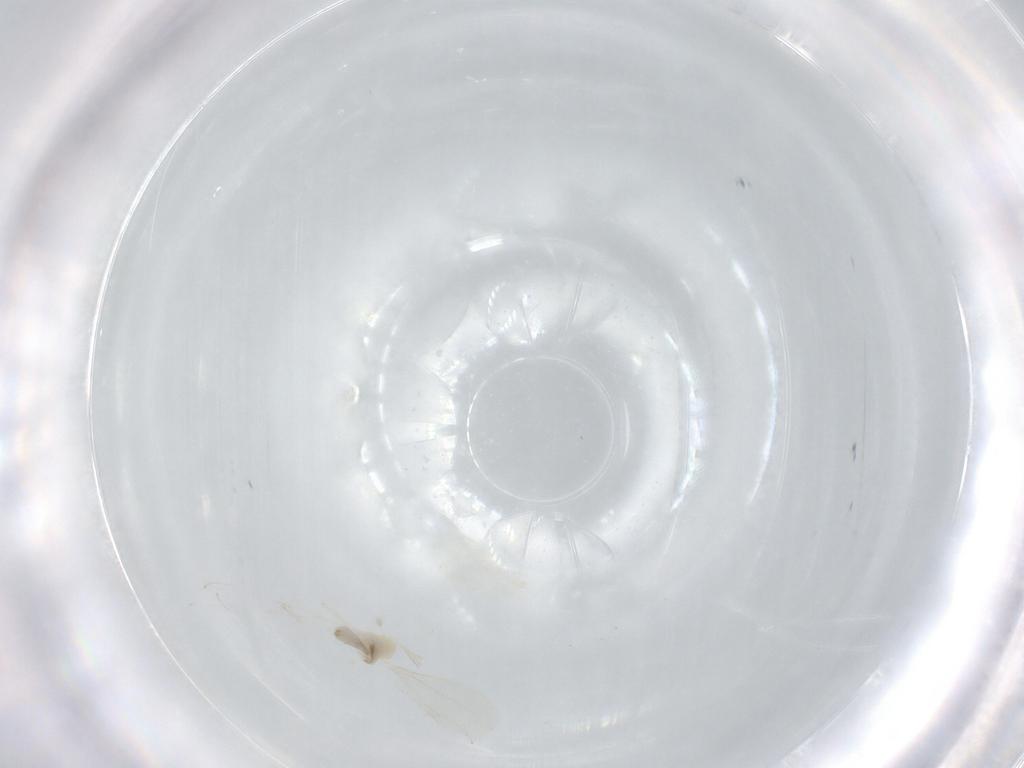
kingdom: Animalia
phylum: Arthropoda
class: Insecta
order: Diptera
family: Cecidomyiidae
